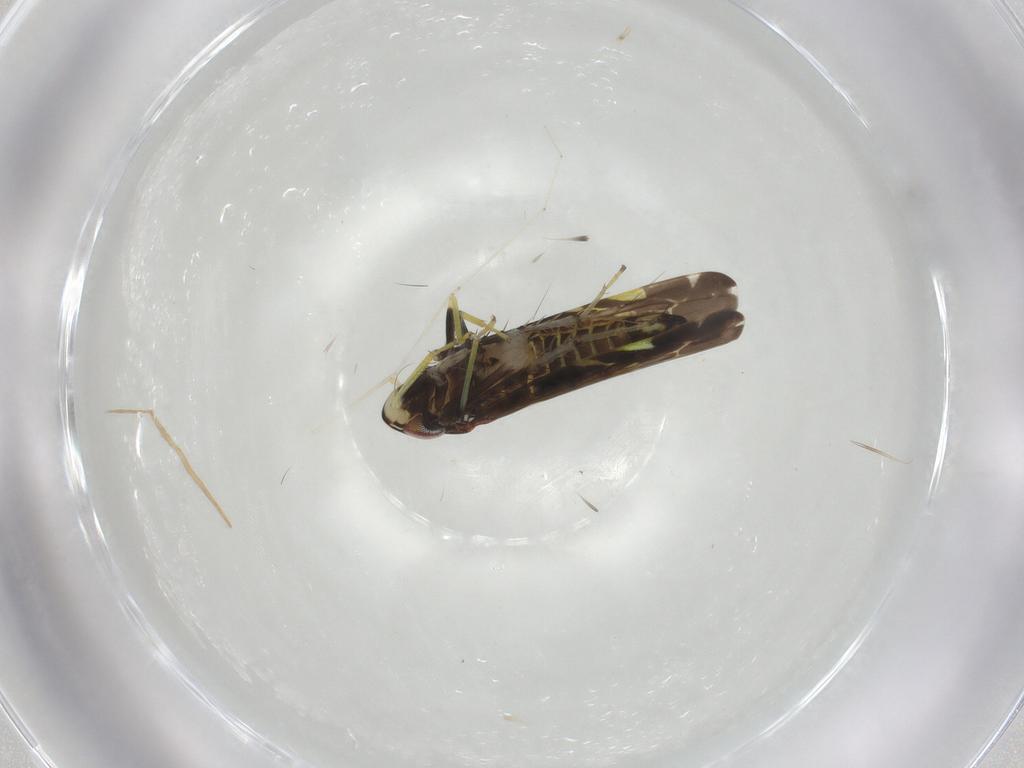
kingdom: Animalia
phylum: Arthropoda
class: Insecta
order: Hemiptera
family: Cicadellidae
